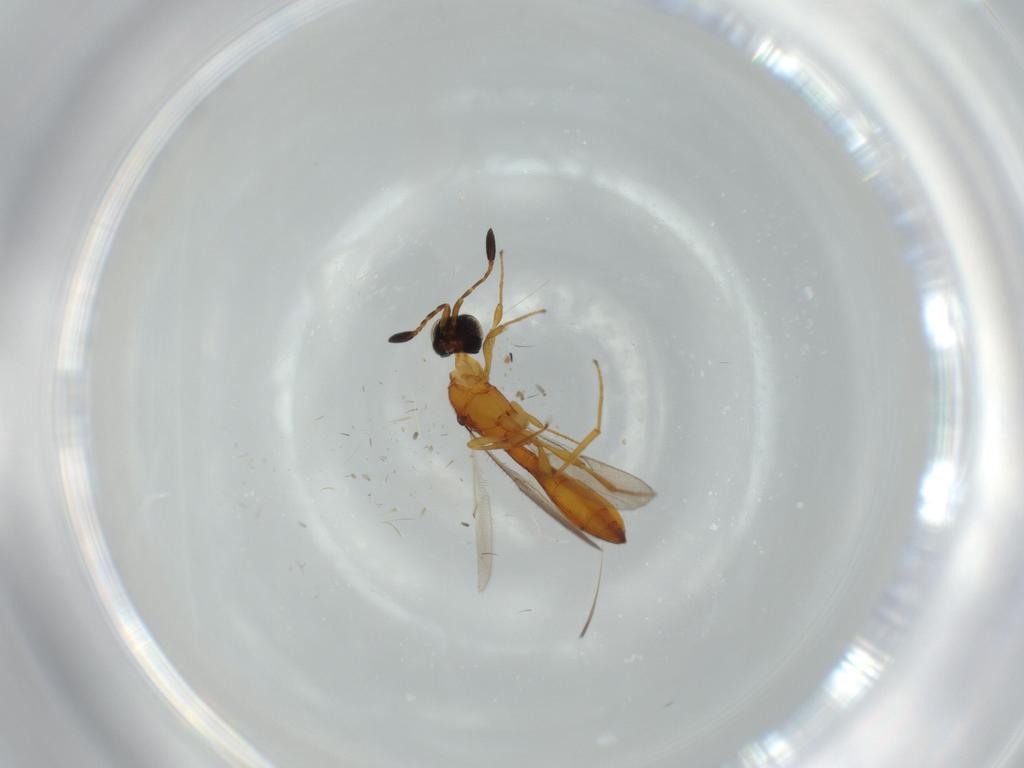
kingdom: Animalia
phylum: Arthropoda
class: Insecta
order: Hymenoptera
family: Scelionidae
